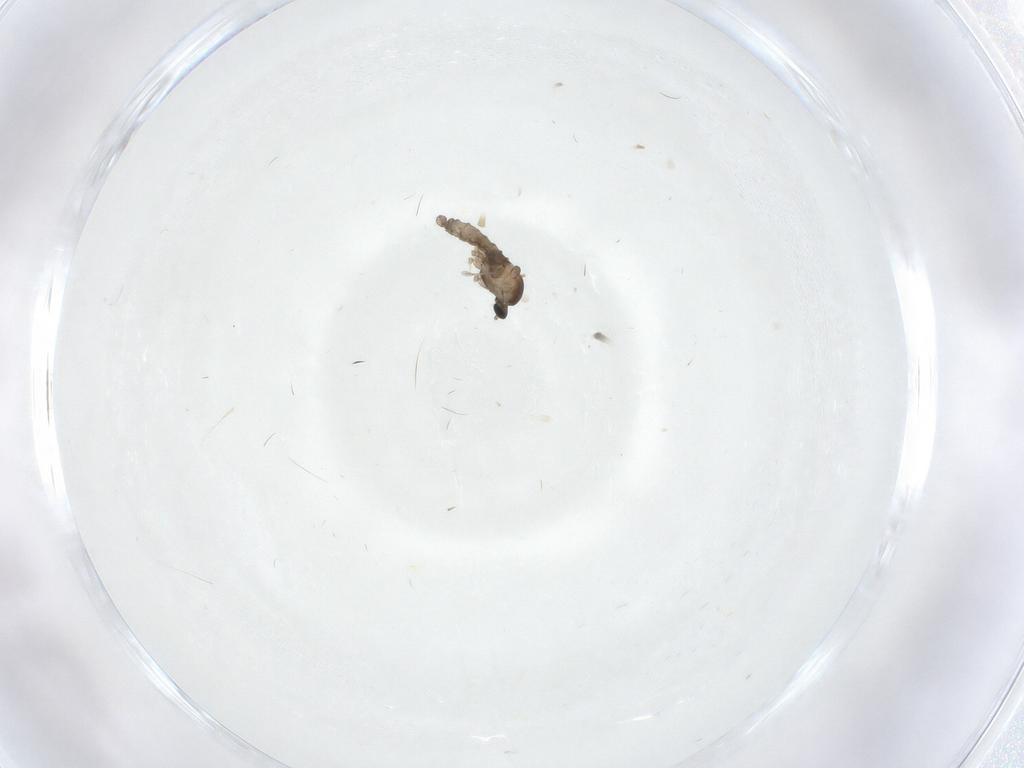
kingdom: Animalia
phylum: Arthropoda
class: Insecta
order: Diptera
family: Cecidomyiidae
